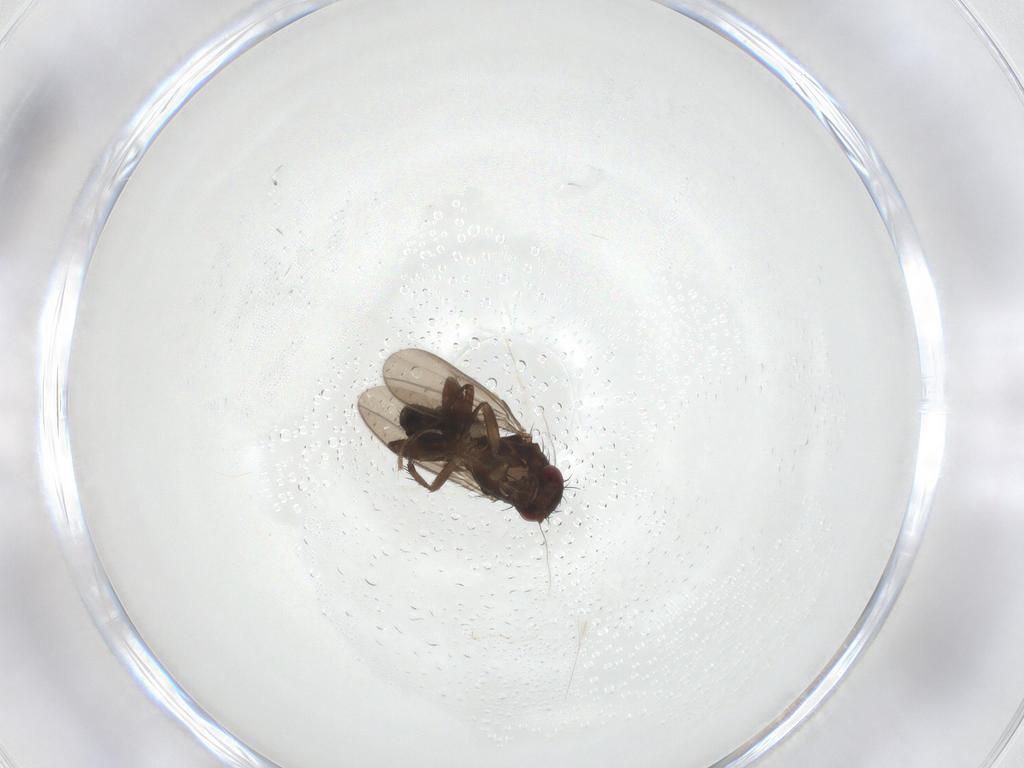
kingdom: Animalia
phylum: Arthropoda
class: Insecta
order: Diptera
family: Sphaeroceridae
